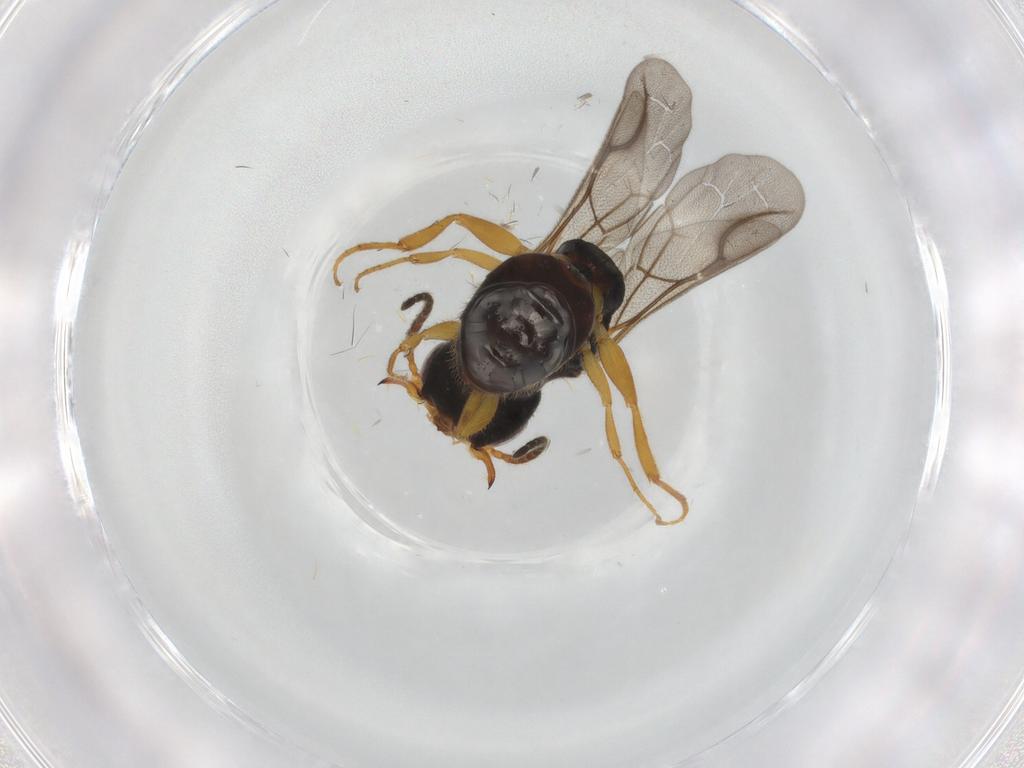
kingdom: Animalia
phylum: Arthropoda
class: Insecta
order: Hymenoptera
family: Bethylidae
